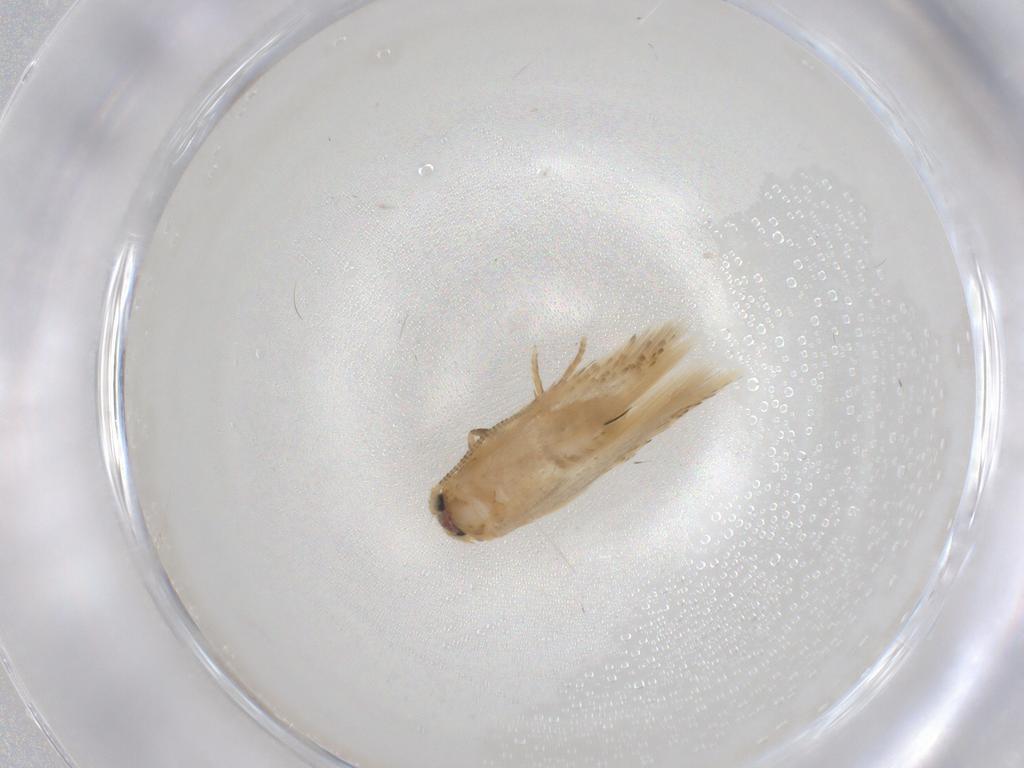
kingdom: Animalia
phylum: Arthropoda
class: Insecta
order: Lepidoptera
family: Nepticulidae
